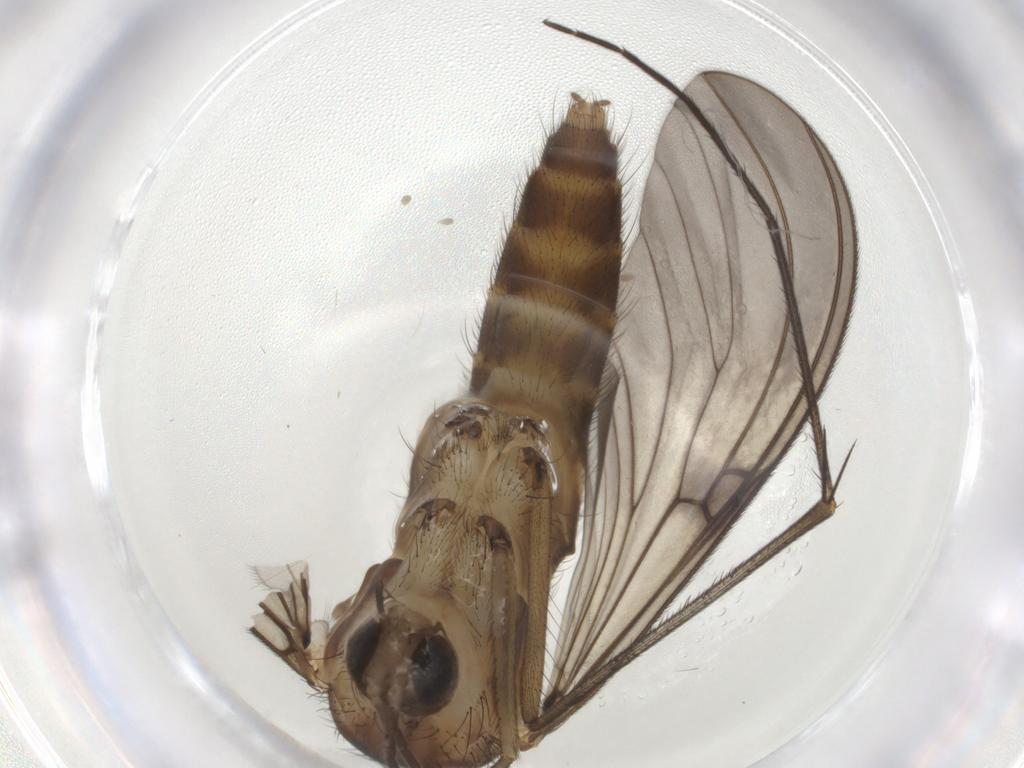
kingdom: Animalia
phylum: Arthropoda
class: Insecta
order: Diptera
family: Mycetophilidae
